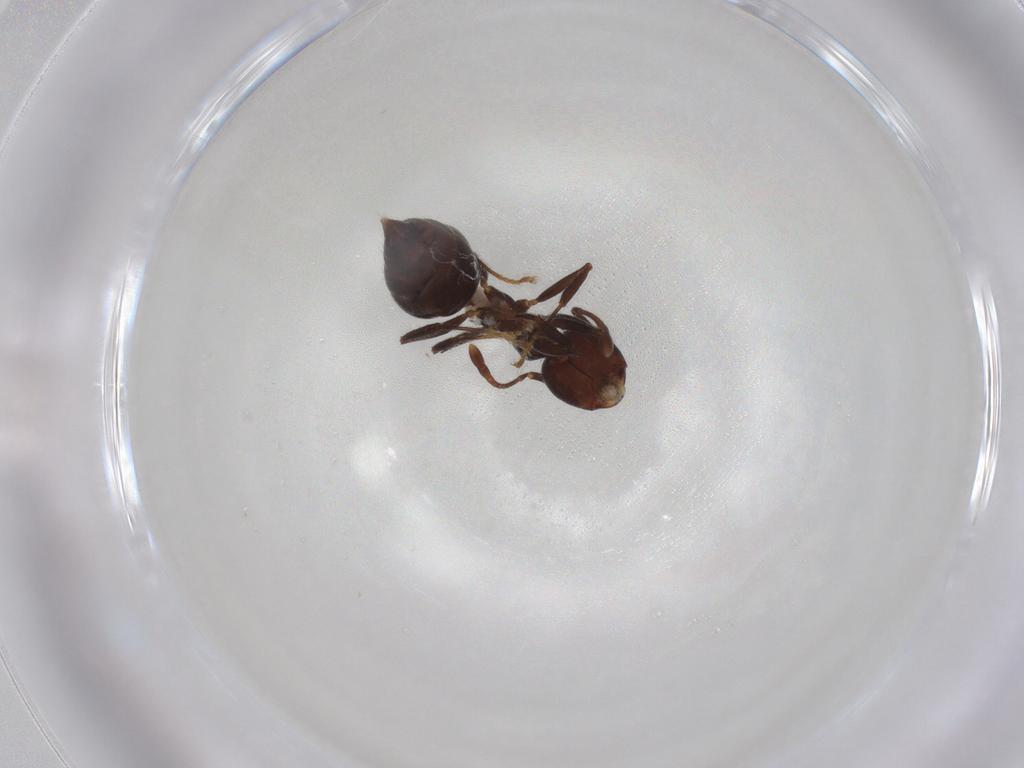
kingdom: Animalia
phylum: Arthropoda
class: Insecta
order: Hymenoptera
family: Formicidae
